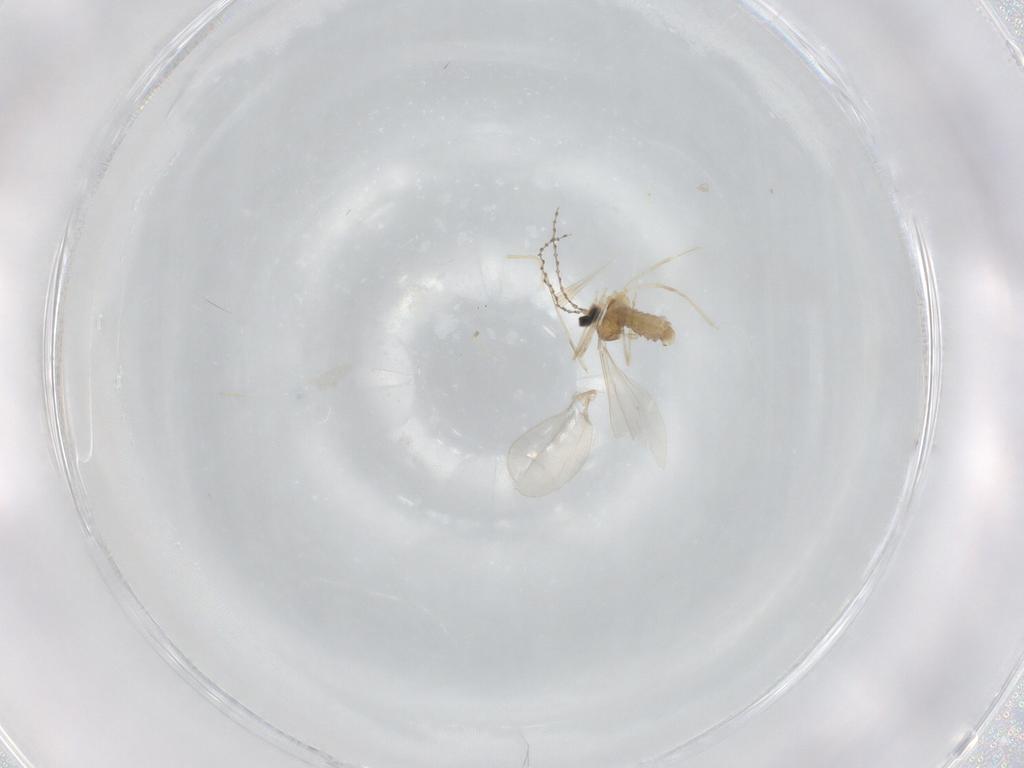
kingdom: Animalia
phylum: Arthropoda
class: Insecta
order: Diptera
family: Cecidomyiidae
